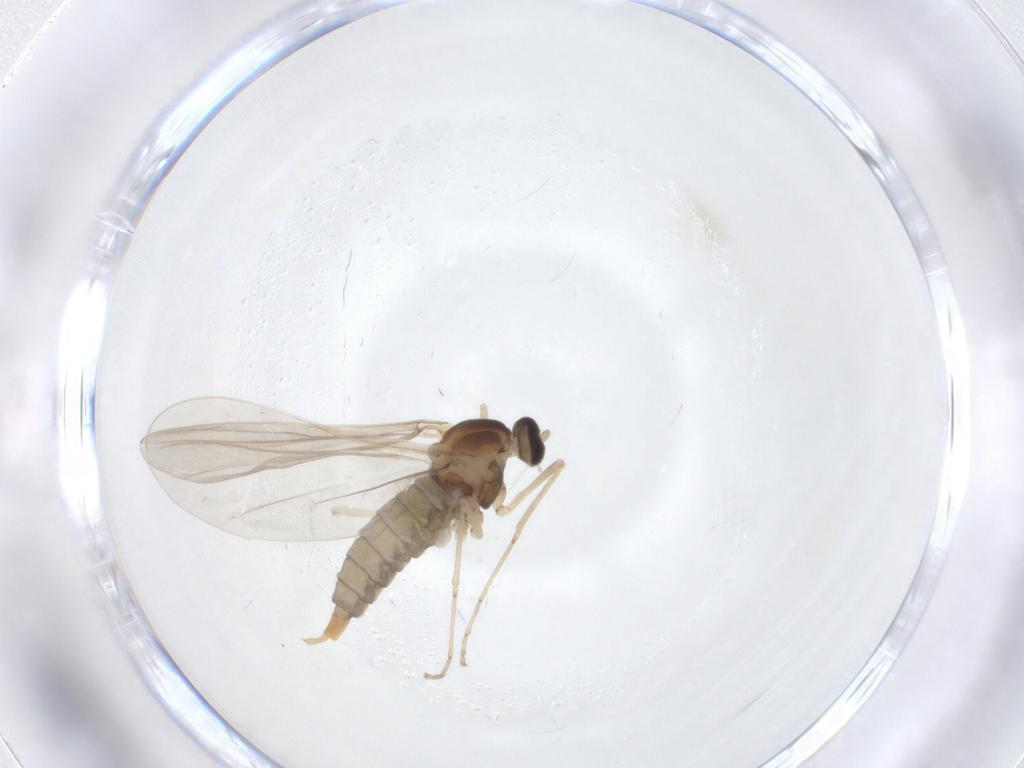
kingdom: Animalia
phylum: Arthropoda
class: Insecta
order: Diptera
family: Cecidomyiidae
